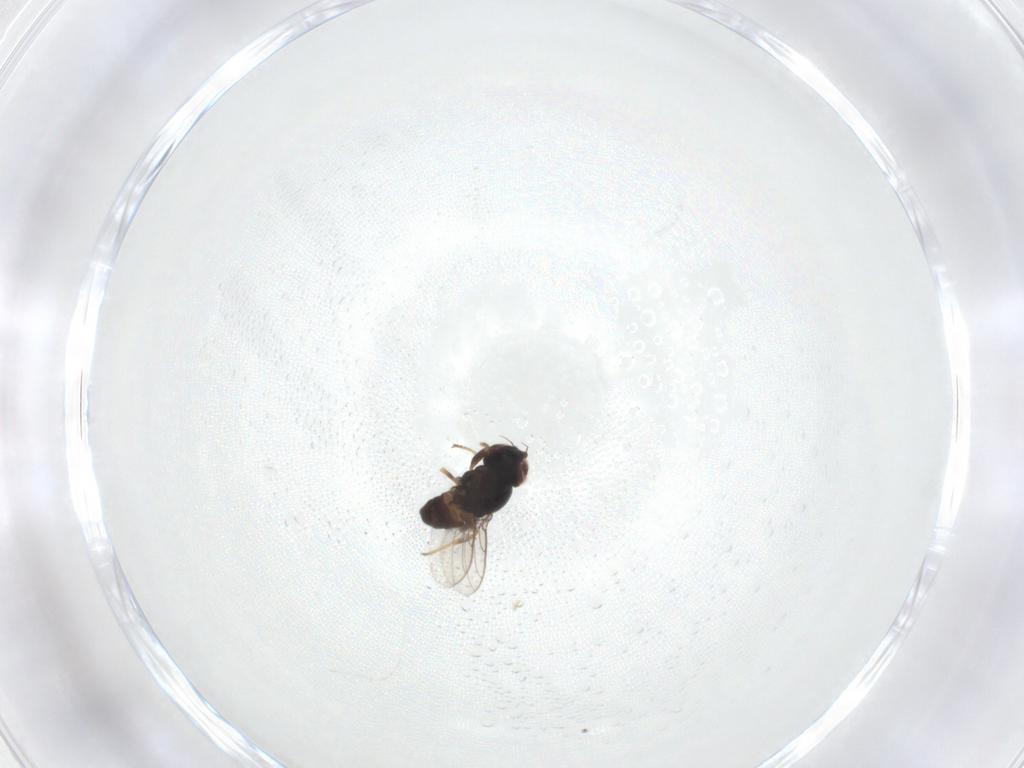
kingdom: Animalia
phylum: Arthropoda
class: Insecta
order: Diptera
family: Chloropidae
